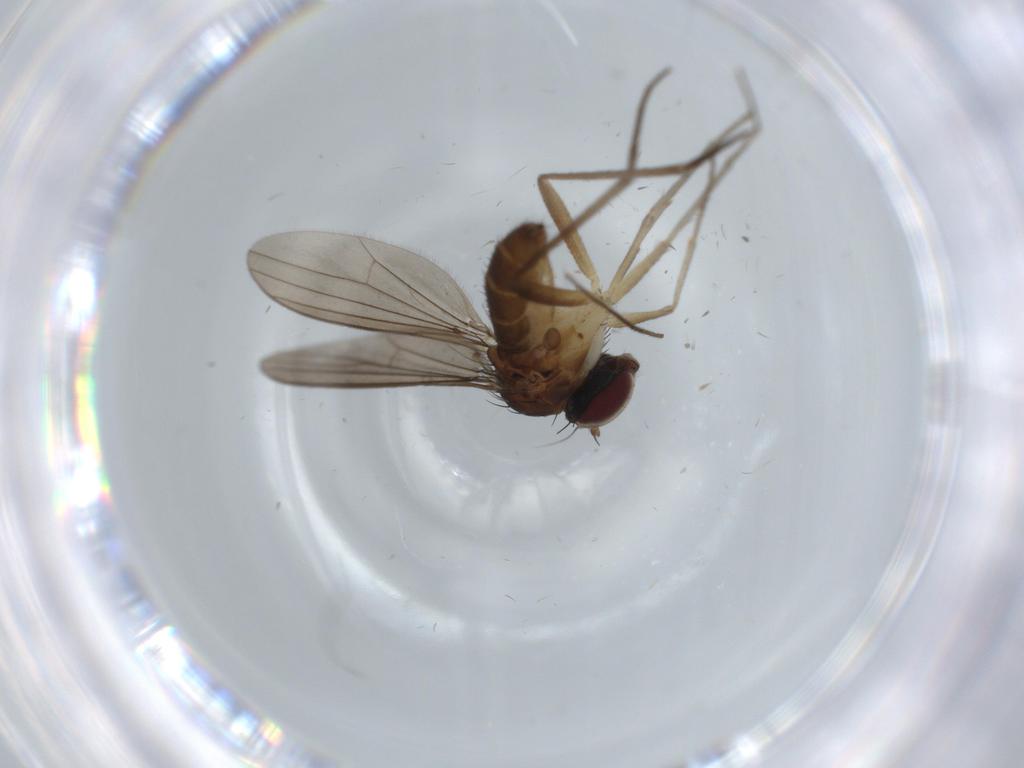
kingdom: Animalia
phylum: Arthropoda
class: Insecta
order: Diptera
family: Dolichopodidae
